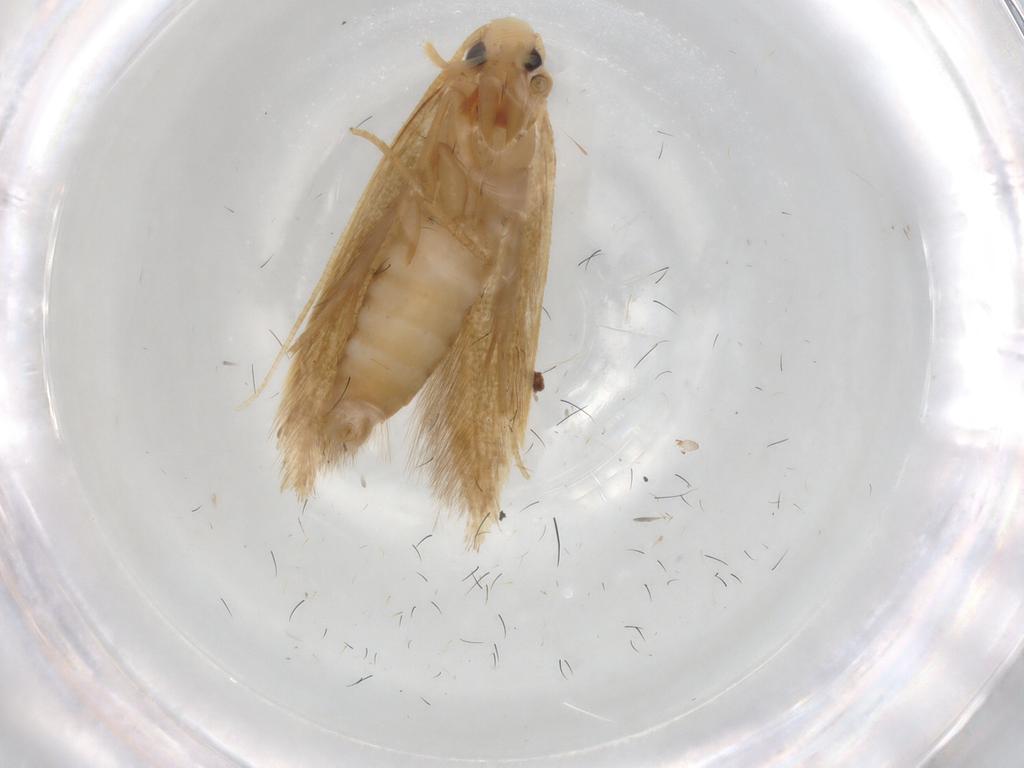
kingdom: Animalia
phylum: Arthropoda
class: Insecta
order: Lepidoptera
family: Tineidae
